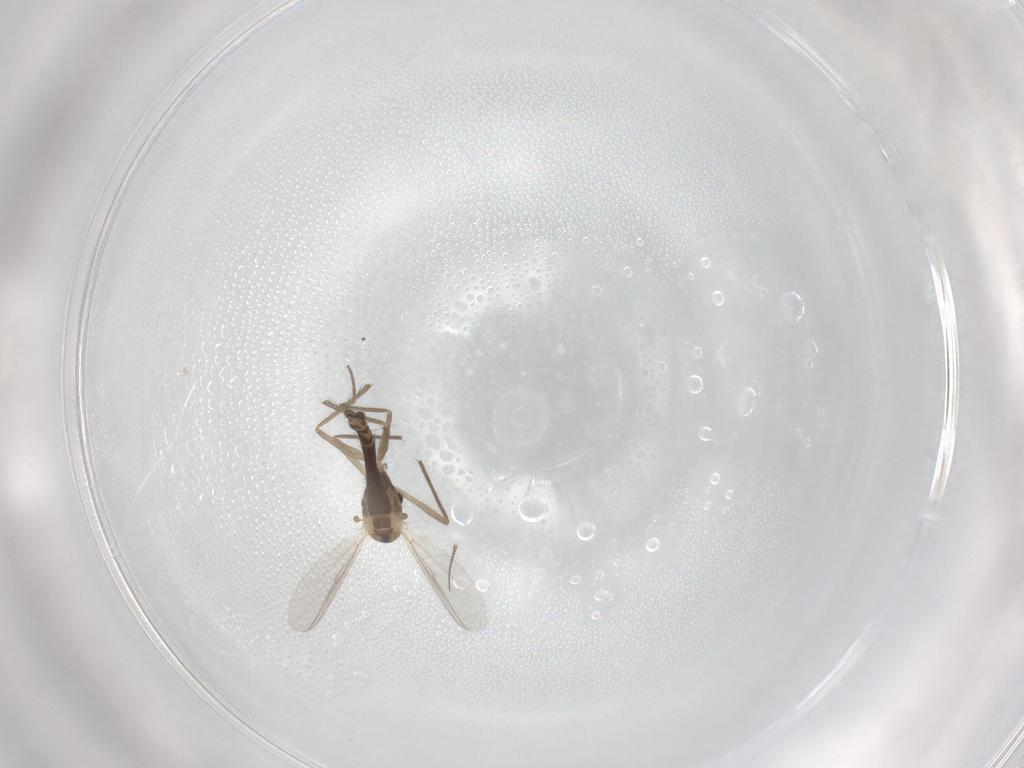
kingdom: Animalia
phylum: Arthropoda
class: Insecta
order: Diptera
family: Chironomidae
